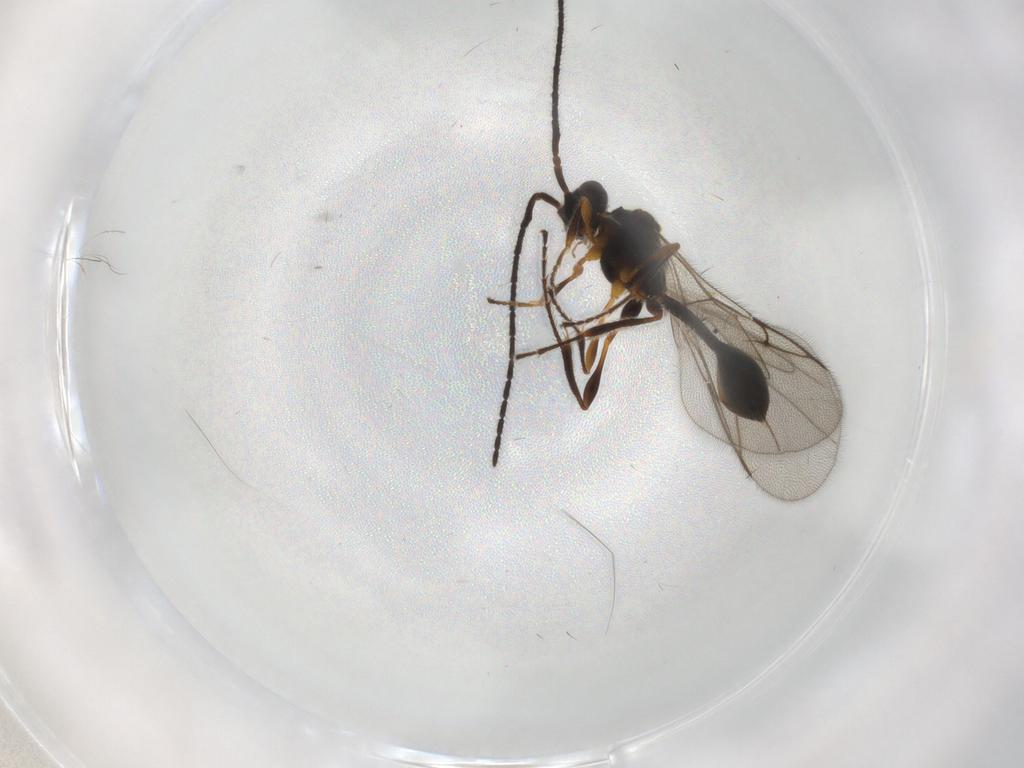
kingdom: Animalia
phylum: Arthropoda
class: Insecta
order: Hymenoptera
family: Diapriidae
